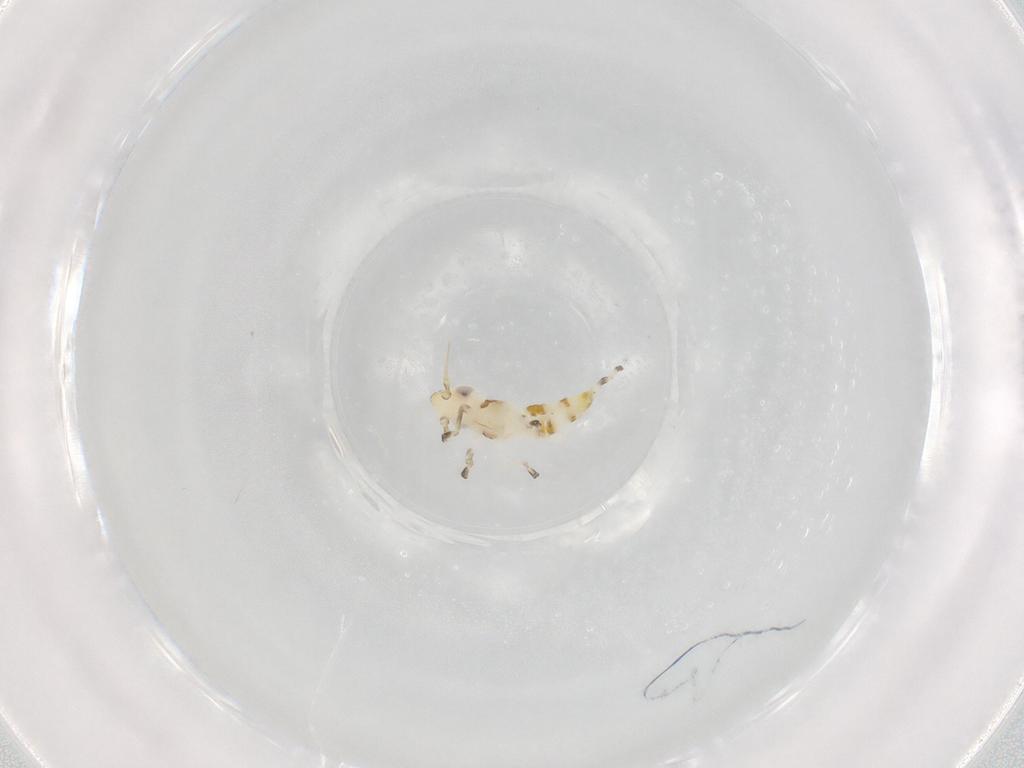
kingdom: Animalia
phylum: Arthropoda
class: Insecta
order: Hemiptera
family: Cicadellidae
